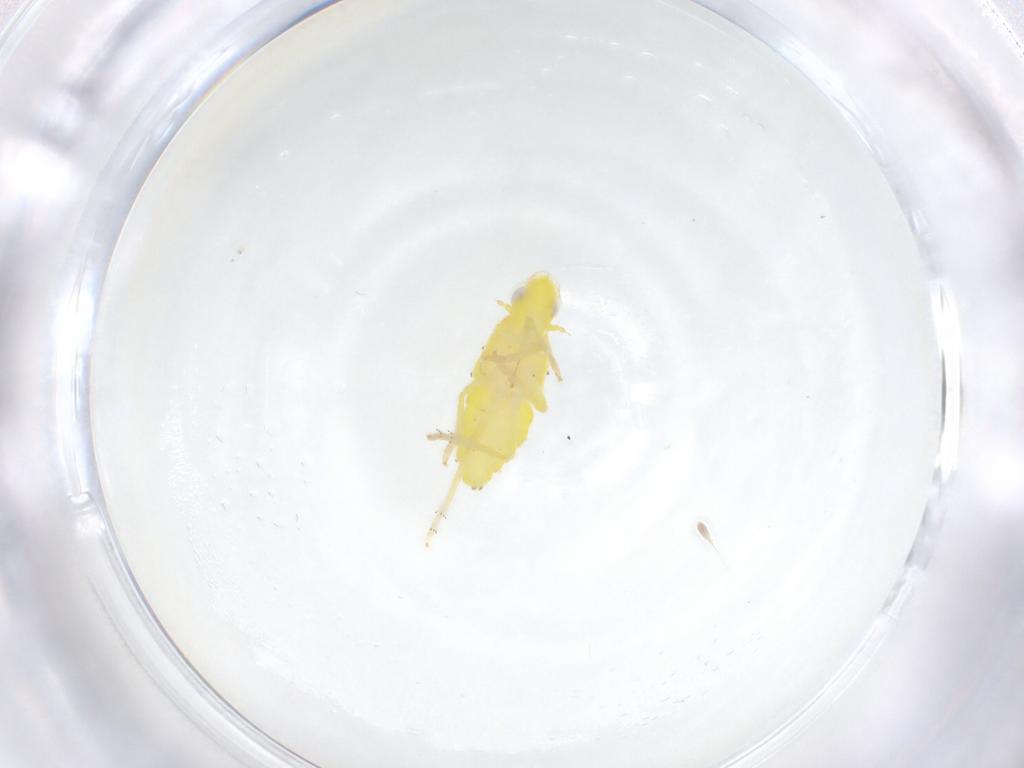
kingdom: Animalia
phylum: Arthropoda
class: Insecta
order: Hemiptera
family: Tropiduchidae
